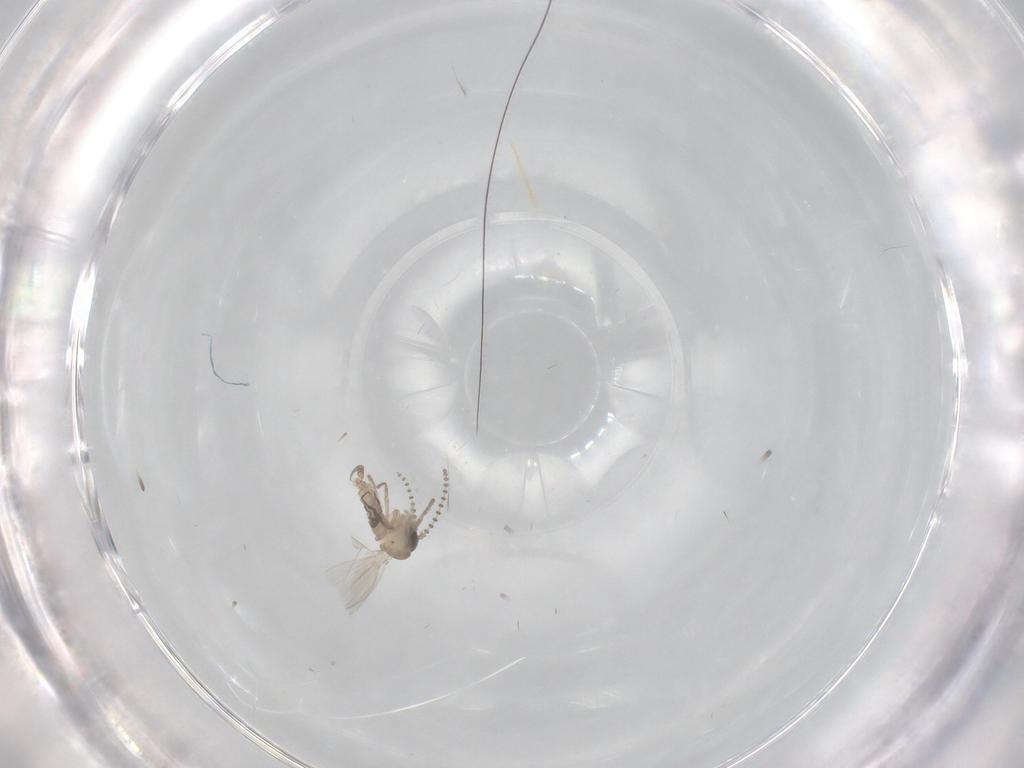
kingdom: Animalia
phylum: Arthropoda
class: Insecta
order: Diptera
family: Psychodidae
